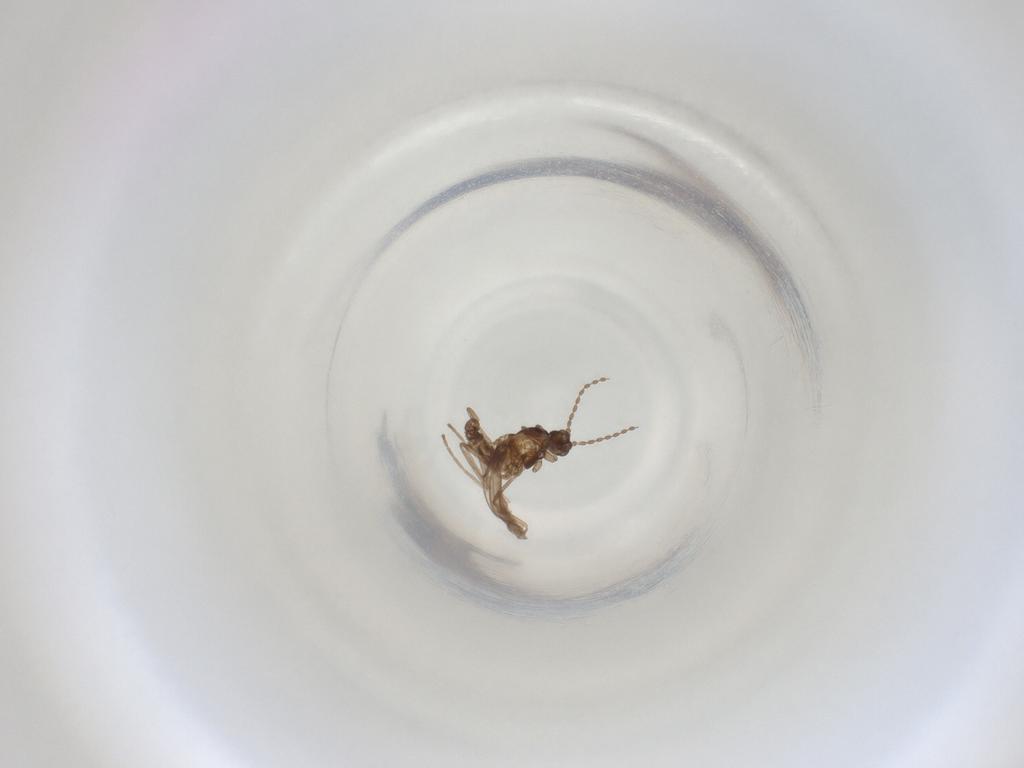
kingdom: Animalia
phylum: Arthropoda
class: Insecta
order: Diptera
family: Cecidomyiidae
